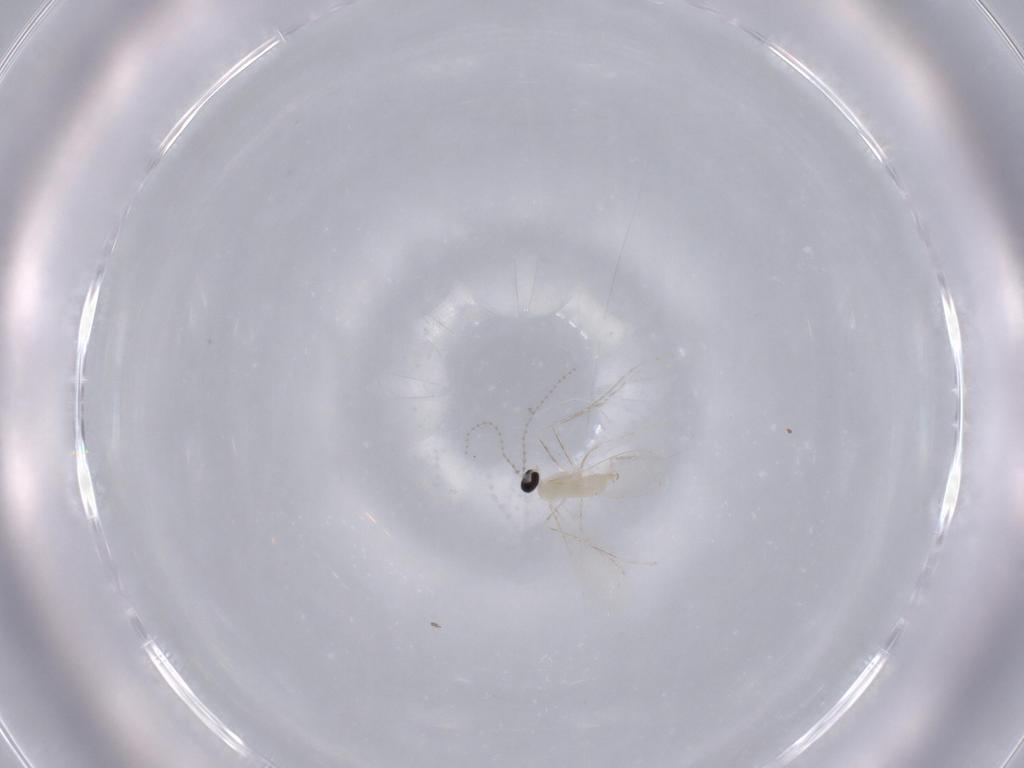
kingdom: Animalia
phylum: Arthropoda
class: Insecta
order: Diptera
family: Cecidomyiidae
